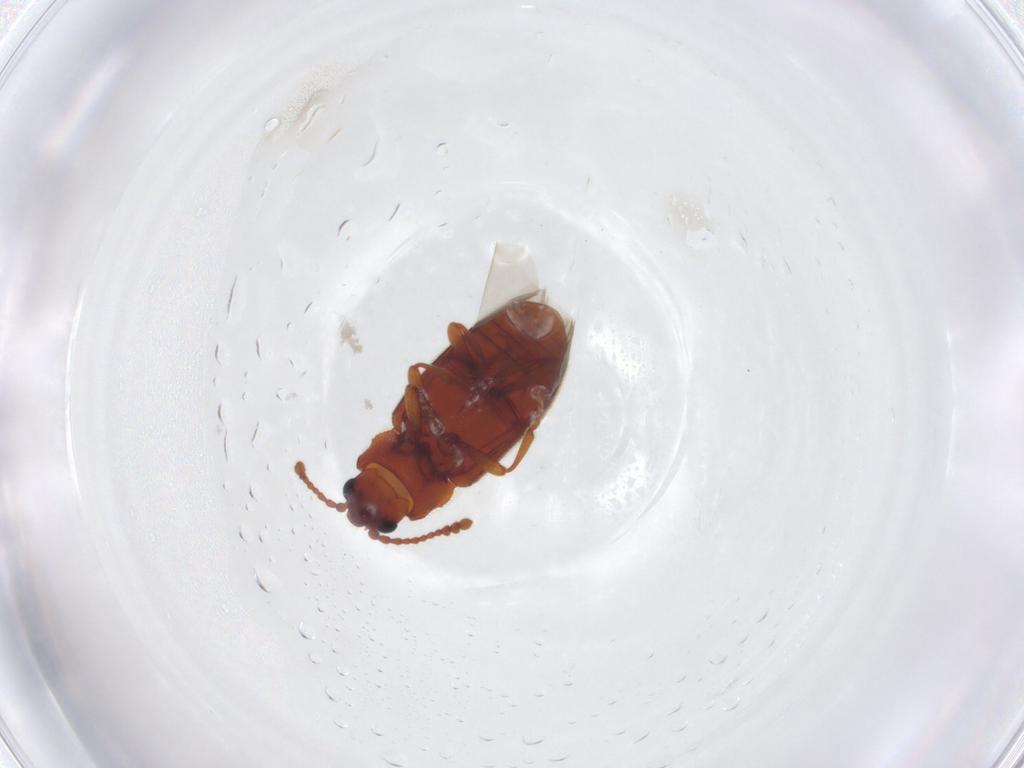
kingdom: Animalia
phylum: Arthropoda
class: Insecta
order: Coleoptera
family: Cryptophagidae
